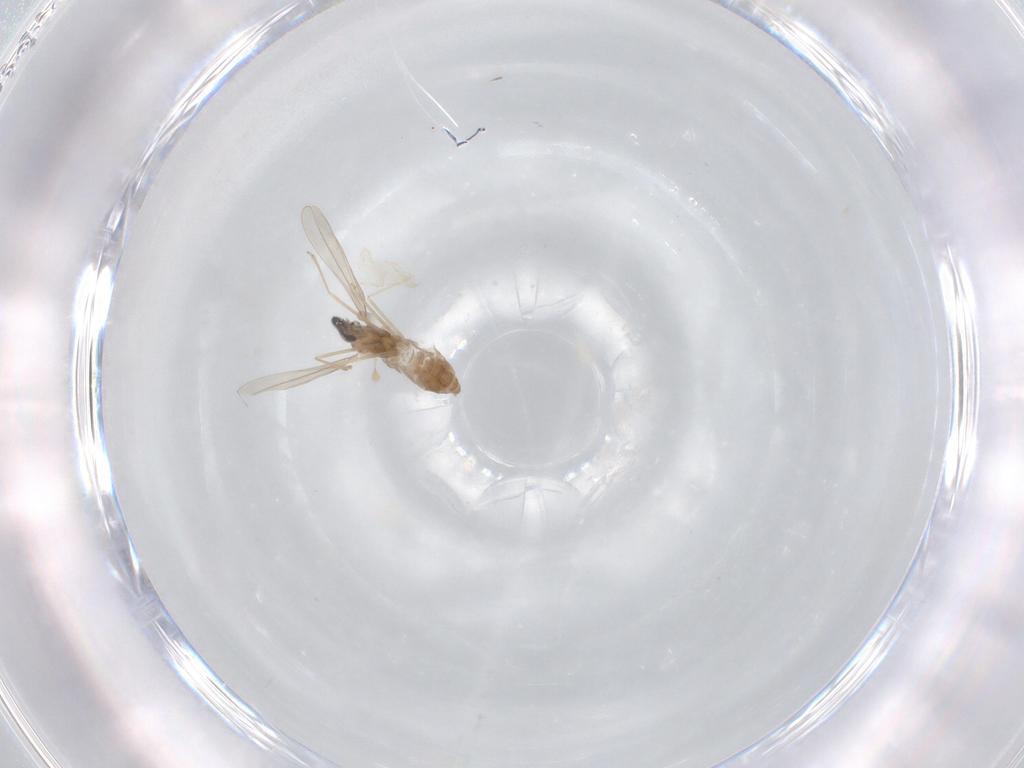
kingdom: Animalia
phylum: Arthropoda
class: Insecta
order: Diptera
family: Cecidomyiidae
